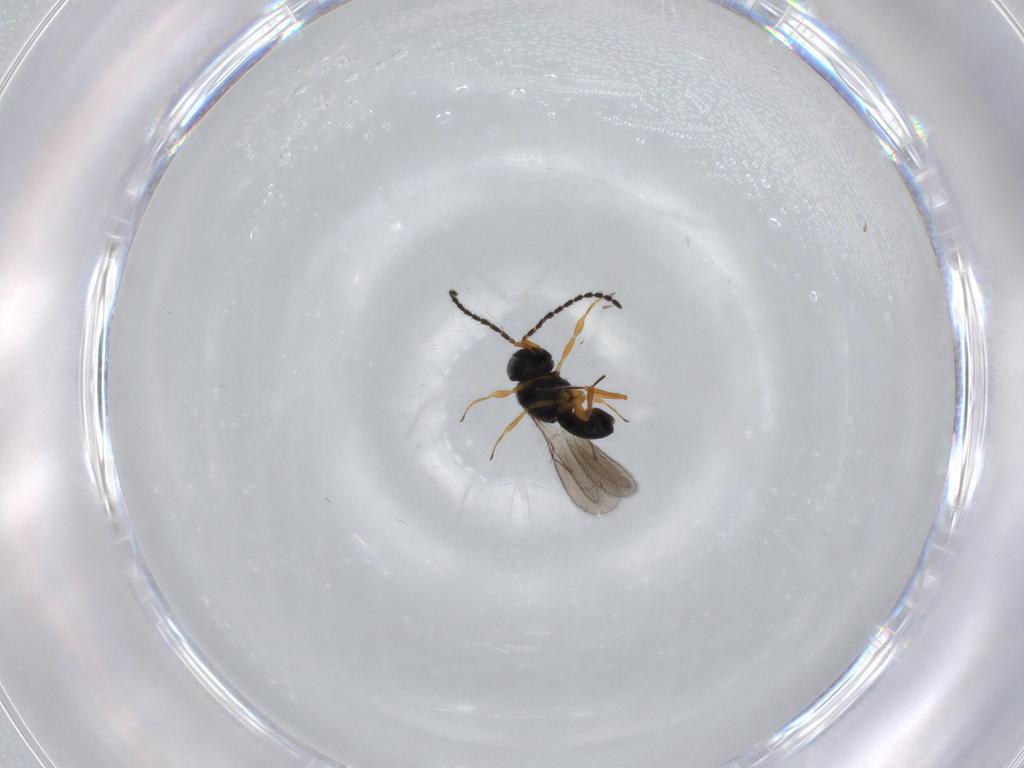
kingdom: Animalia
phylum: Arthropoda
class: Insecta
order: Hymenoptera
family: Scelionidae
